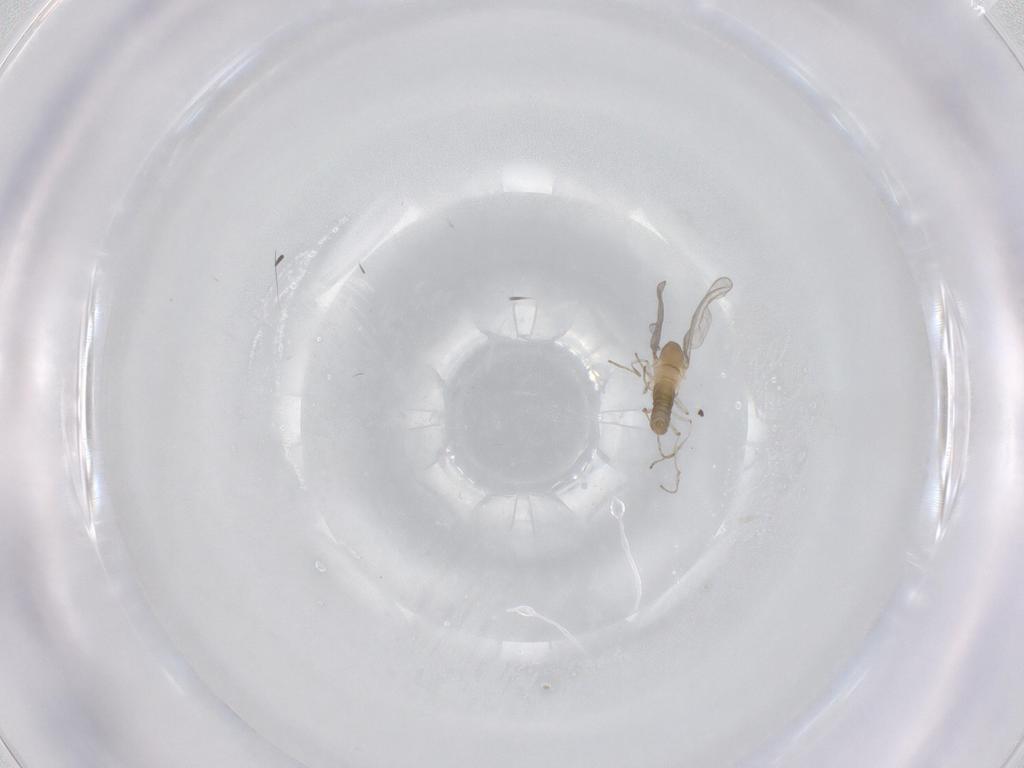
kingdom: Animalia
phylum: Arthropoda
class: Insecta
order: Diptera
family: Cecidomyiidae
